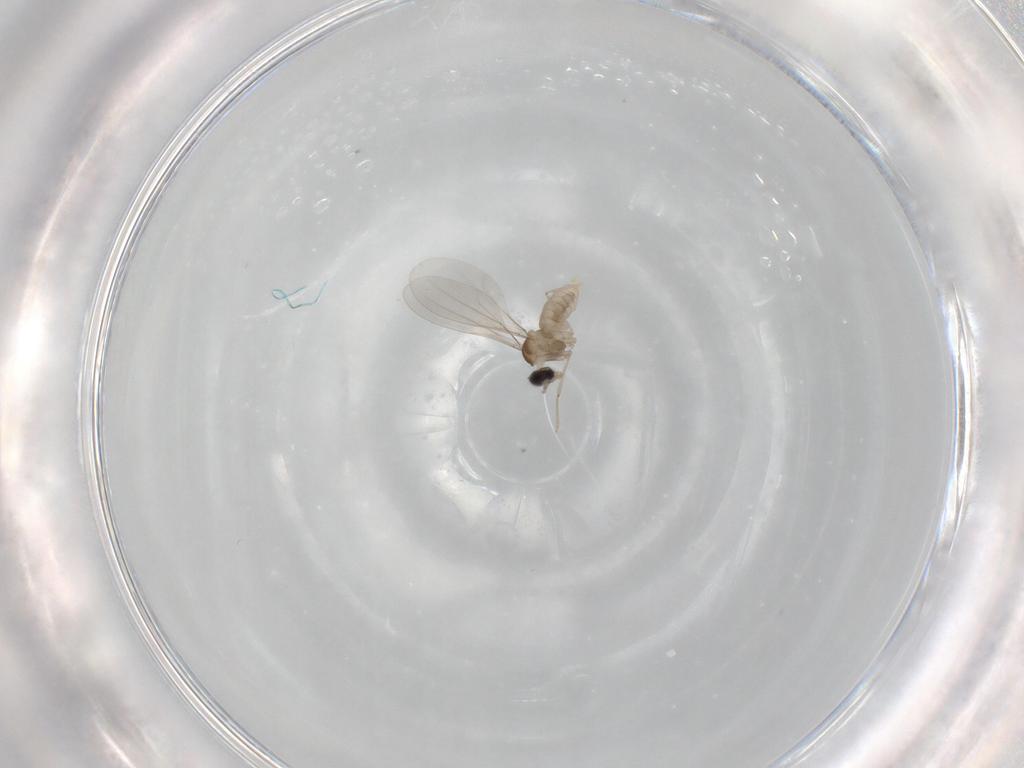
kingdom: Animalia
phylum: Arthropoda
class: Insecta
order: Diptera
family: Cecidomyiidae
